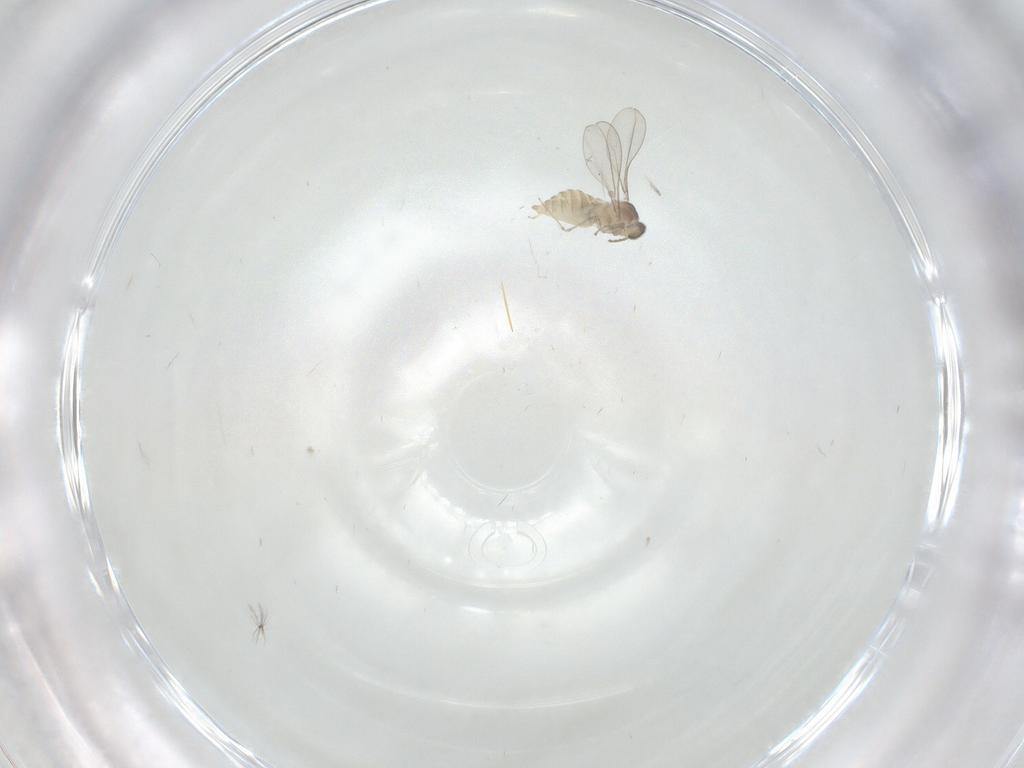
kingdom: Animalia
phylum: Arthropoda
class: Insecta
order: Diptera
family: Cecidomyiidae
